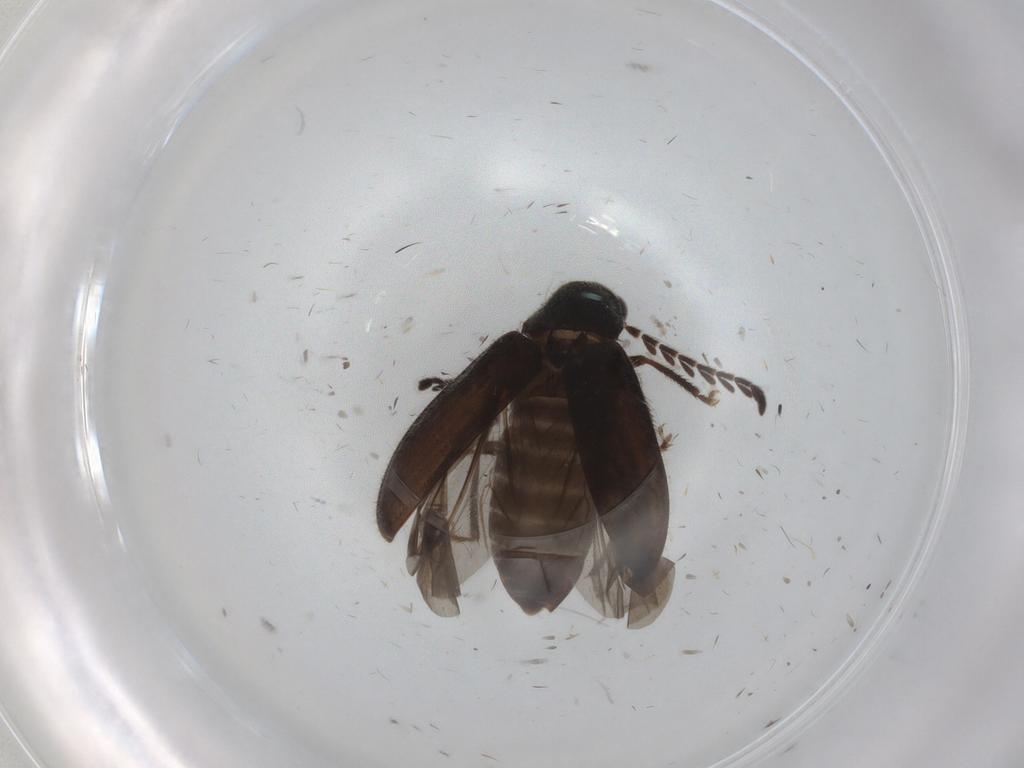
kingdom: Animalia
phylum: Arthropoda
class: Insecta
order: Coleoptera
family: Ptilodactylidae
